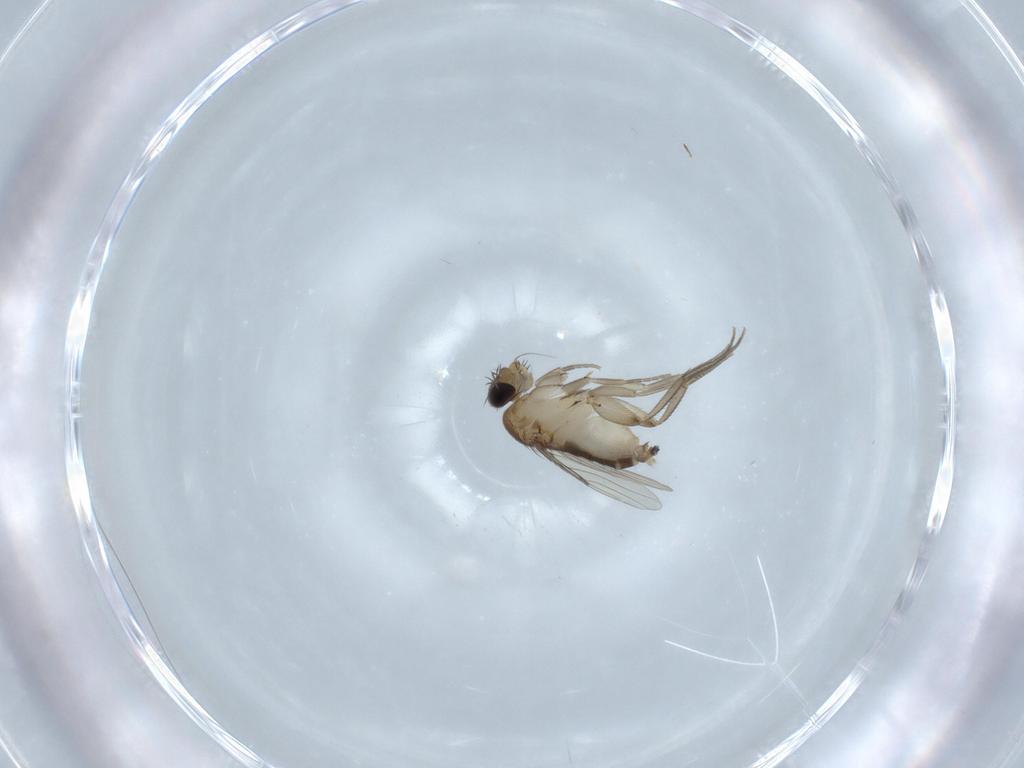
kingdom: Animalia
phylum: Arthropoda
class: Insecta
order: Diptera
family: Phoridae
